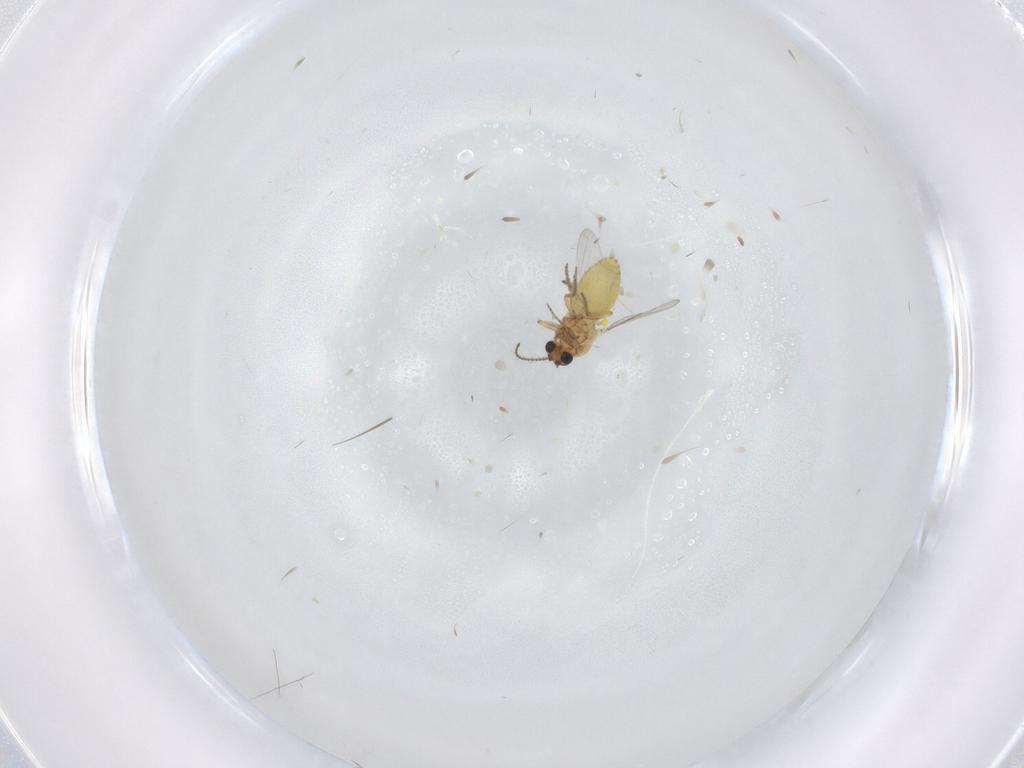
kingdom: Animalia
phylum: Arthropoda
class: Insecta
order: Diptera
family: Ceratopogonidae
